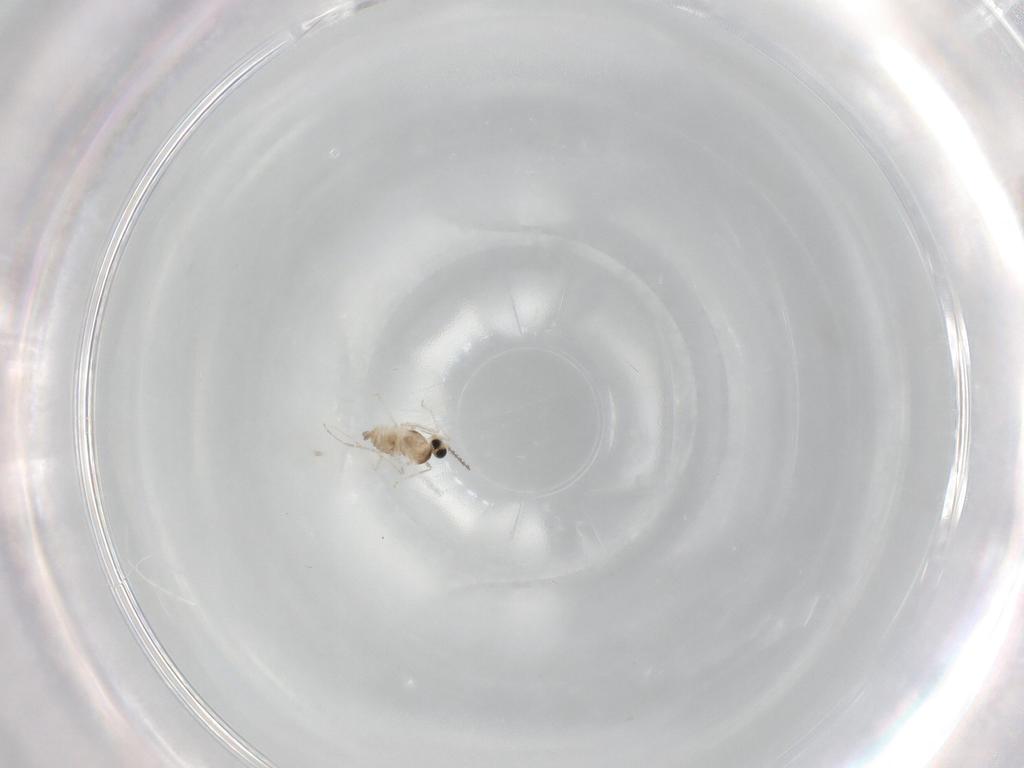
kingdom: Animalia
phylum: Arthropoda
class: Insecta
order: Diptera
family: Cecidomyiidae
